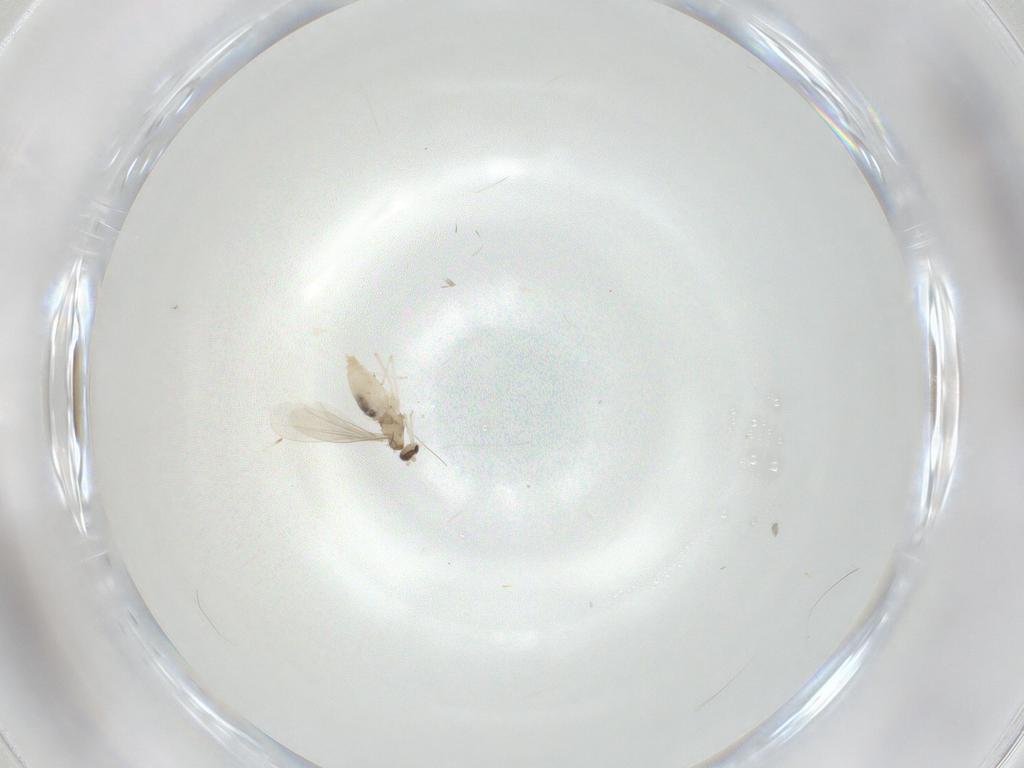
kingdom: Animalia
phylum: Arthropoda
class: Insecta
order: Diptera
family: Cecidomyiidae
